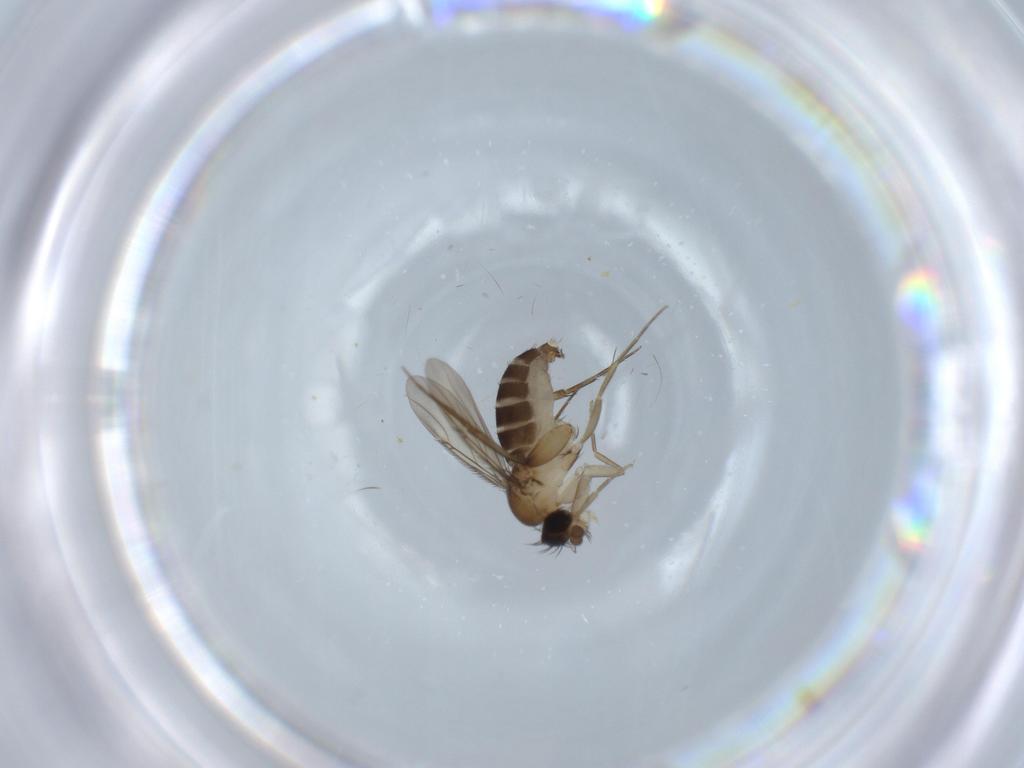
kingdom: Animalia
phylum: Arthropoda
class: Insecta
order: Diptera
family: Phoridae
